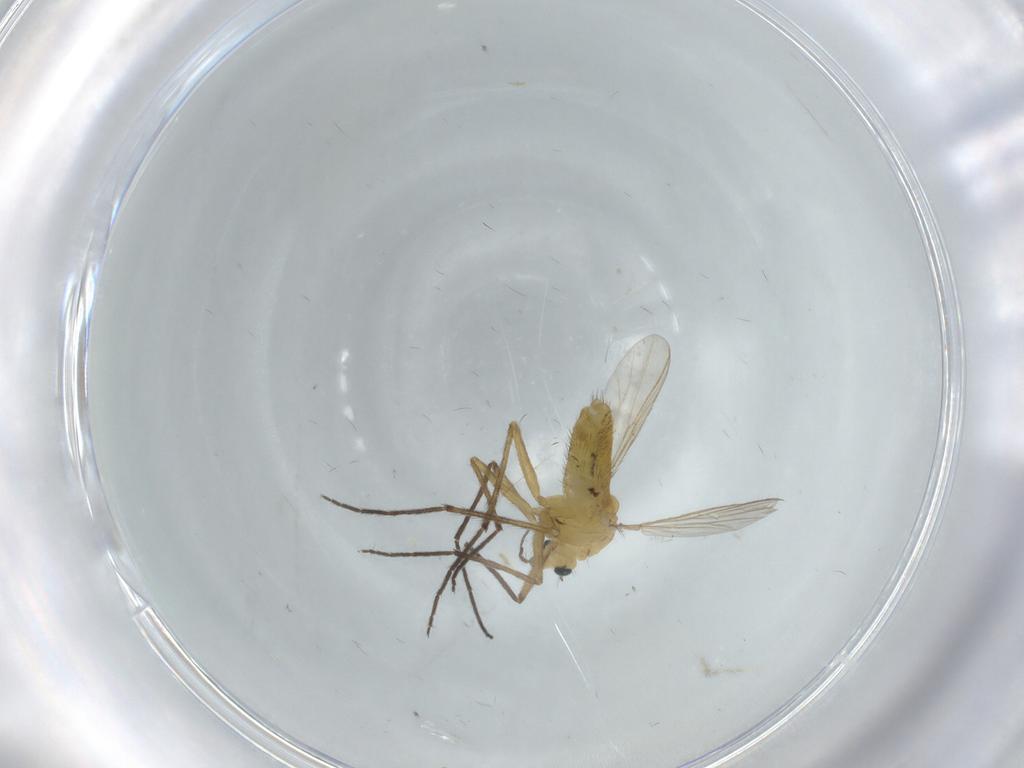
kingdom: Animalia
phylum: Arthropoda
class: Insecta
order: Diptera
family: Chironomidae
